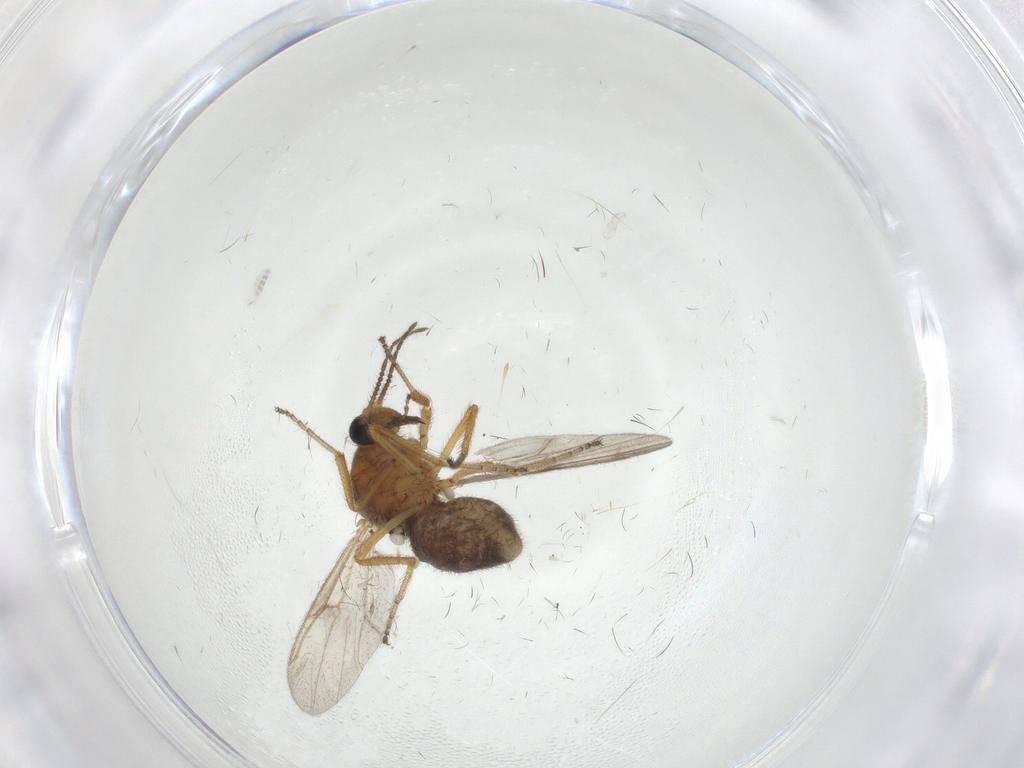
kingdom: Animalia
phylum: Arthropoda
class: Insecta
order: Diptera
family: Ceratopogonidae
